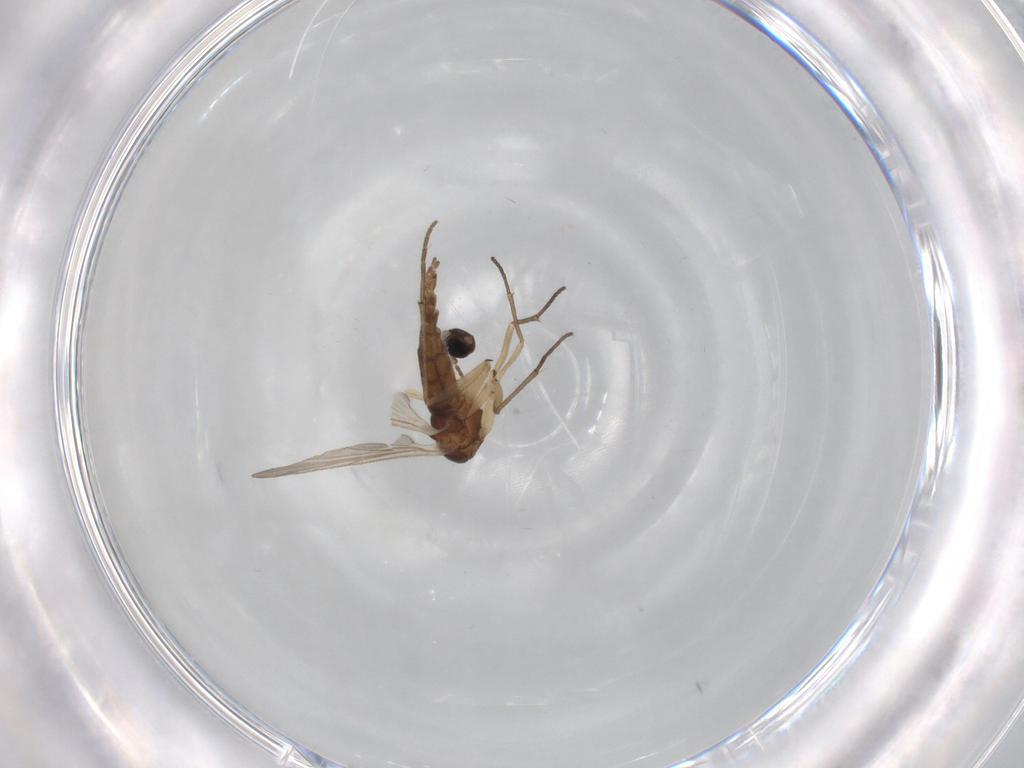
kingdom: Animalia
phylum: Arthropoda
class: Insecta
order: Diptera
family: Sciaridae
